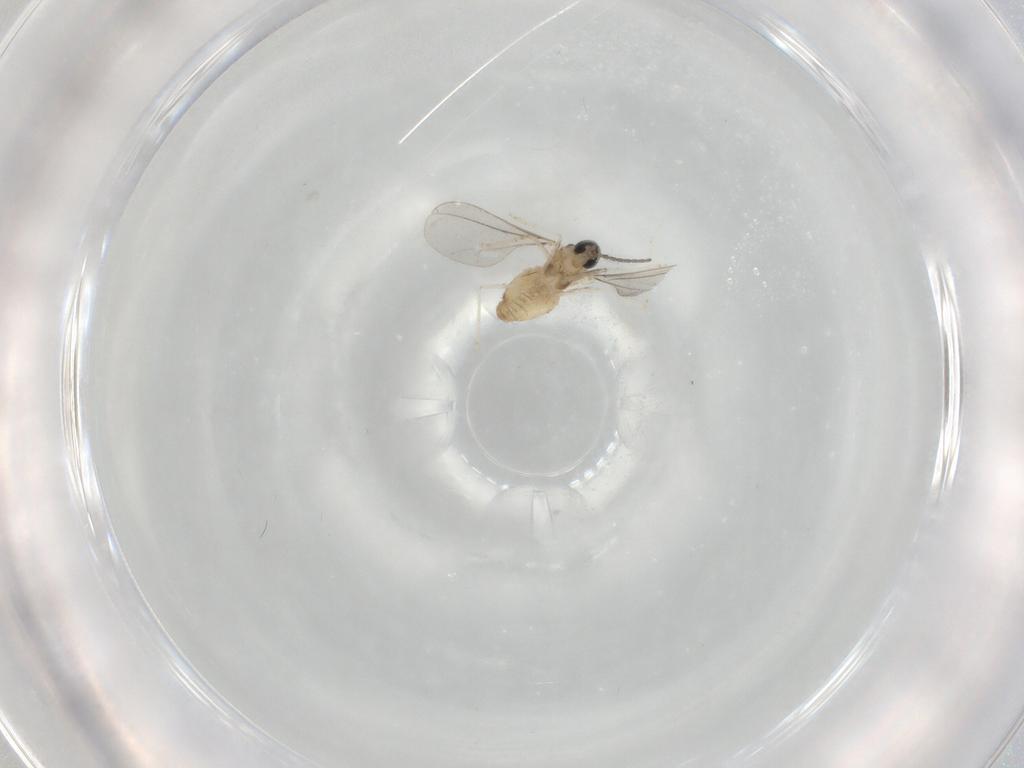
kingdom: Animalia
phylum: Arthropoda
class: Insecta
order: Diptera
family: Cecidomyiidae
